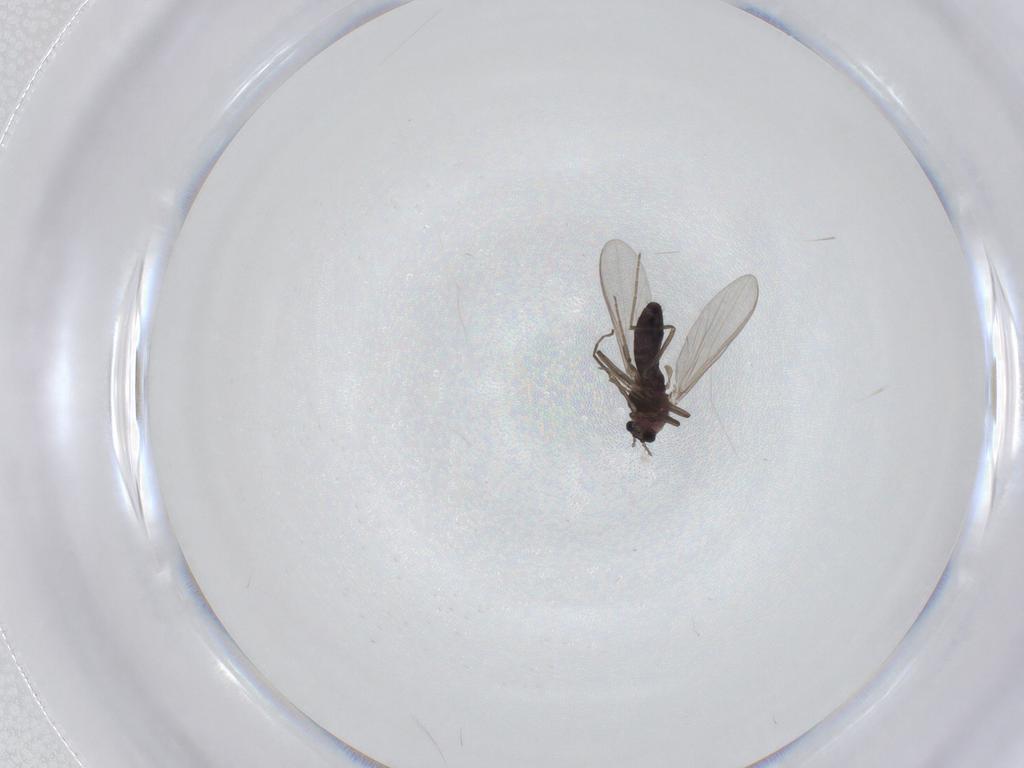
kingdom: Animalia
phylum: Arthropoda
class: Insecta
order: Diptera
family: Chironomidae
